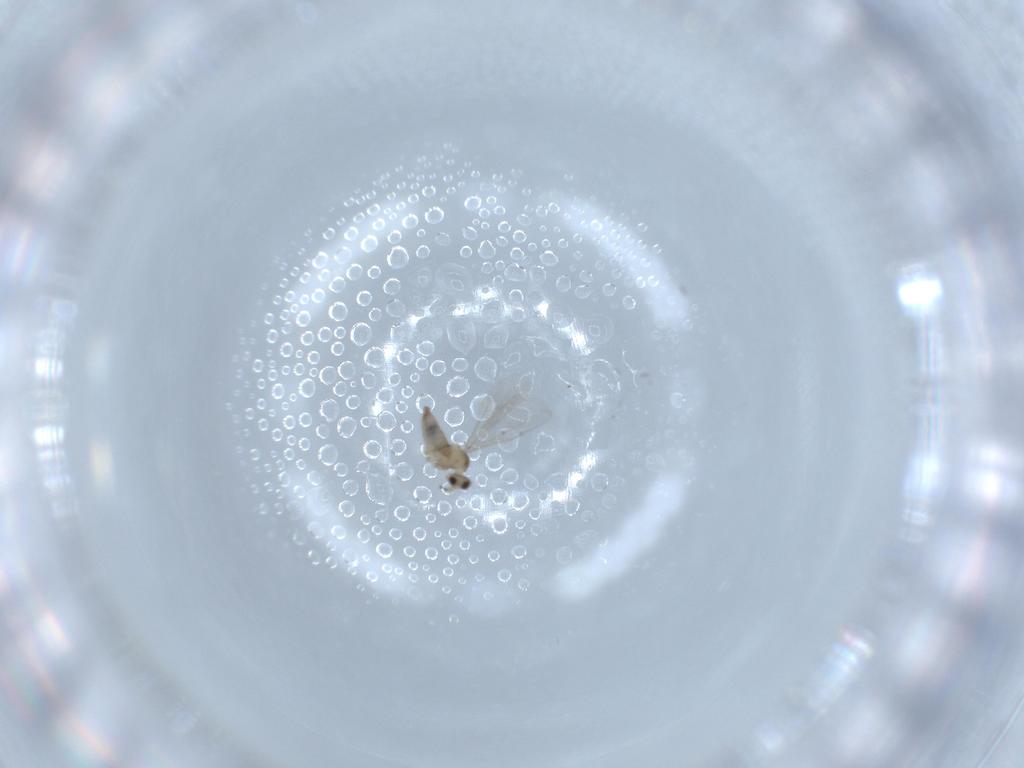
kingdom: Animalia
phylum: Arthropoda
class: Insecta
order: Diptera
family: Cecidomyiidae
